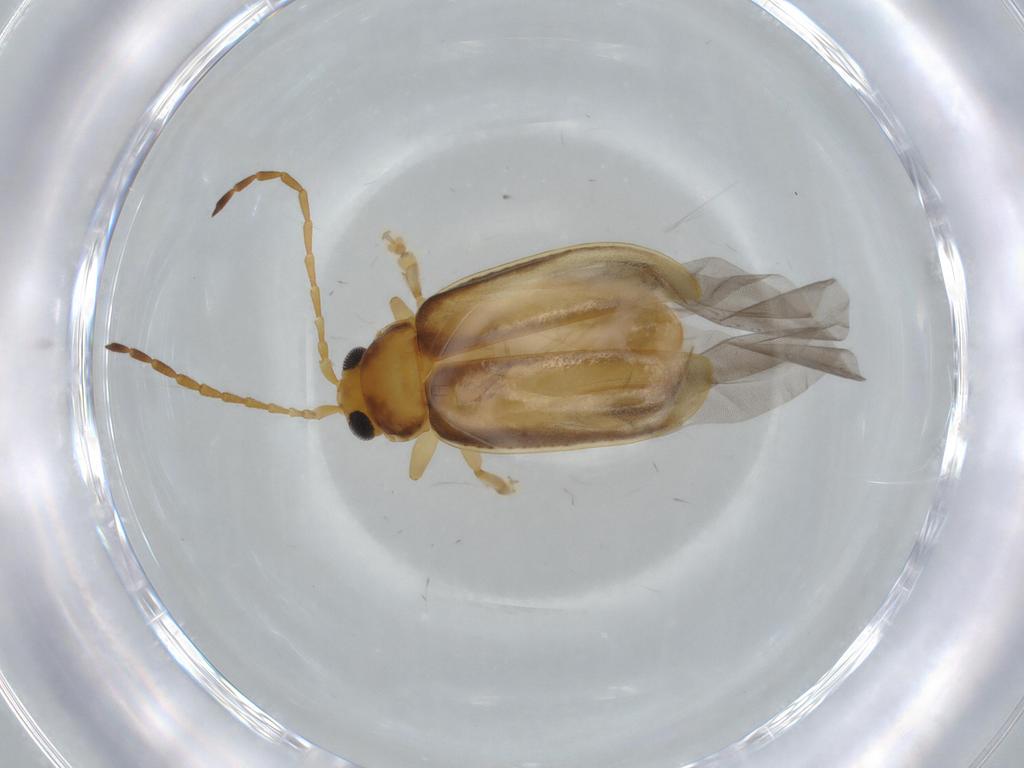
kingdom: Animalia
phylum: Arthropoda
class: Insecta
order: Coleoptera
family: Chrysomelidae
